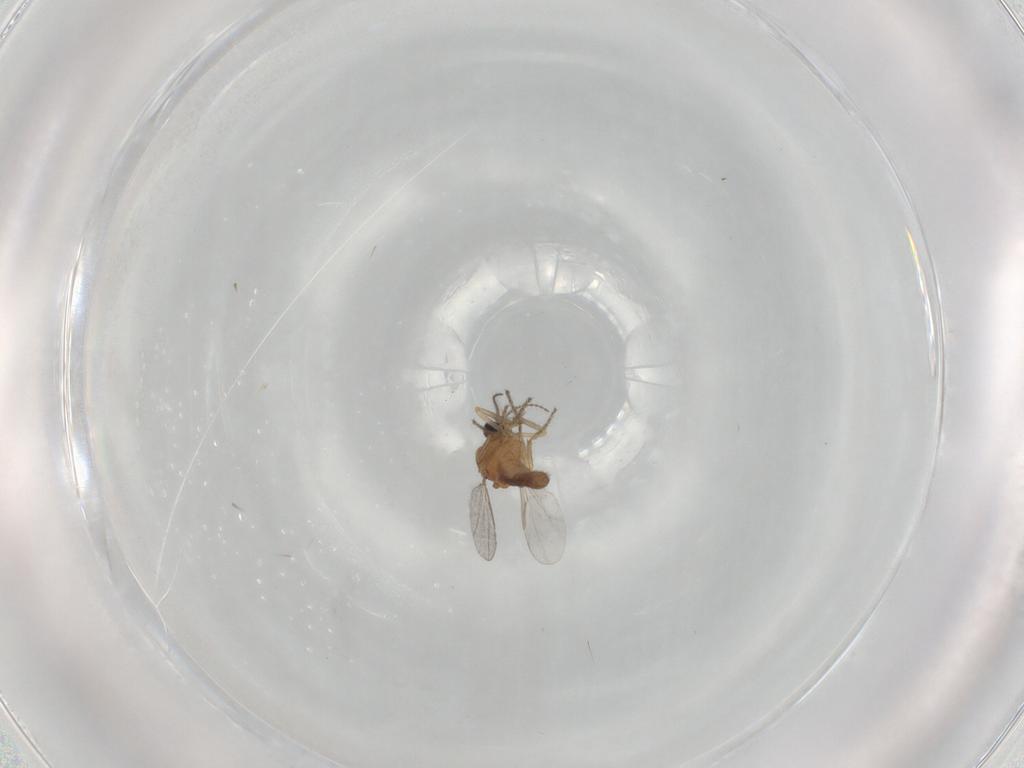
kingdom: Animalia
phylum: Arthropoda
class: Insecta
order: Diptera
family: Ceratopogonidae
